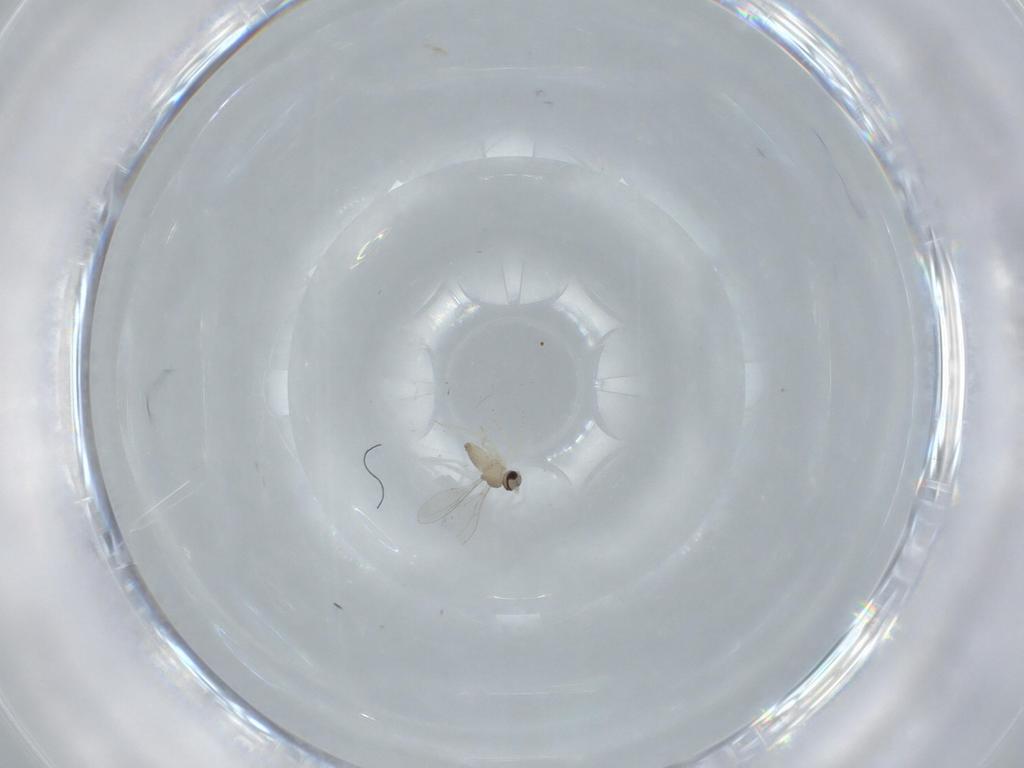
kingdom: Animalia
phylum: Arthropoda
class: Insecta
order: Diptera
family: Cecidomyiidae
